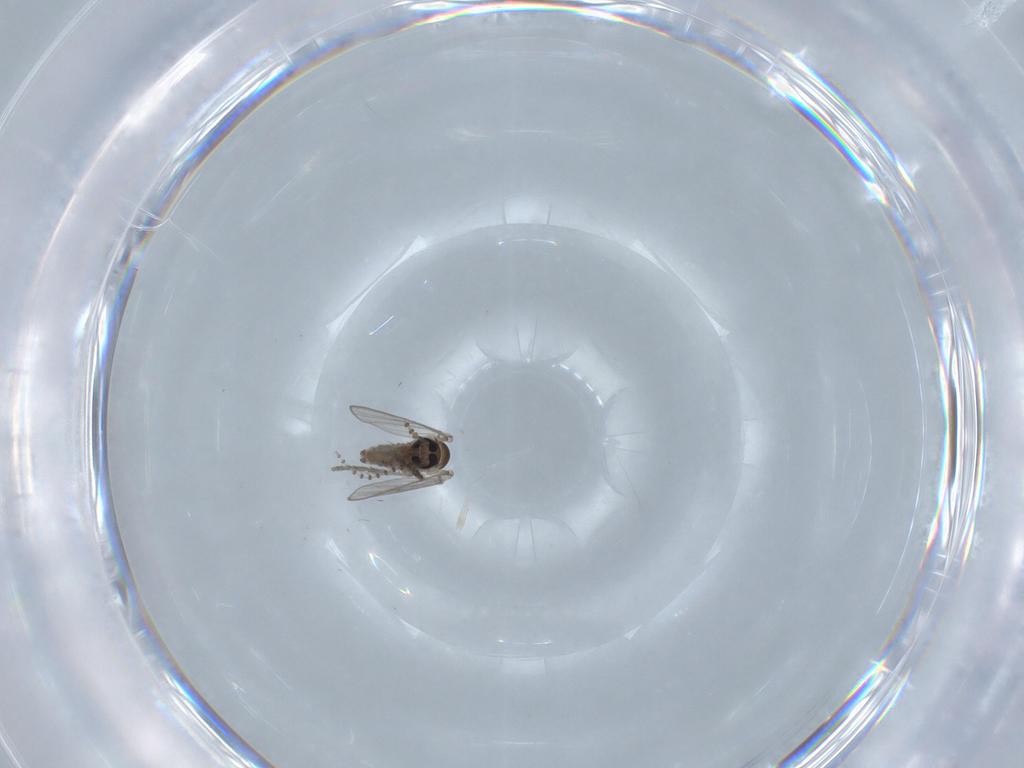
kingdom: Animalia
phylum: Arthropoda
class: Insecta
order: Diptera
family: Psychodidae
